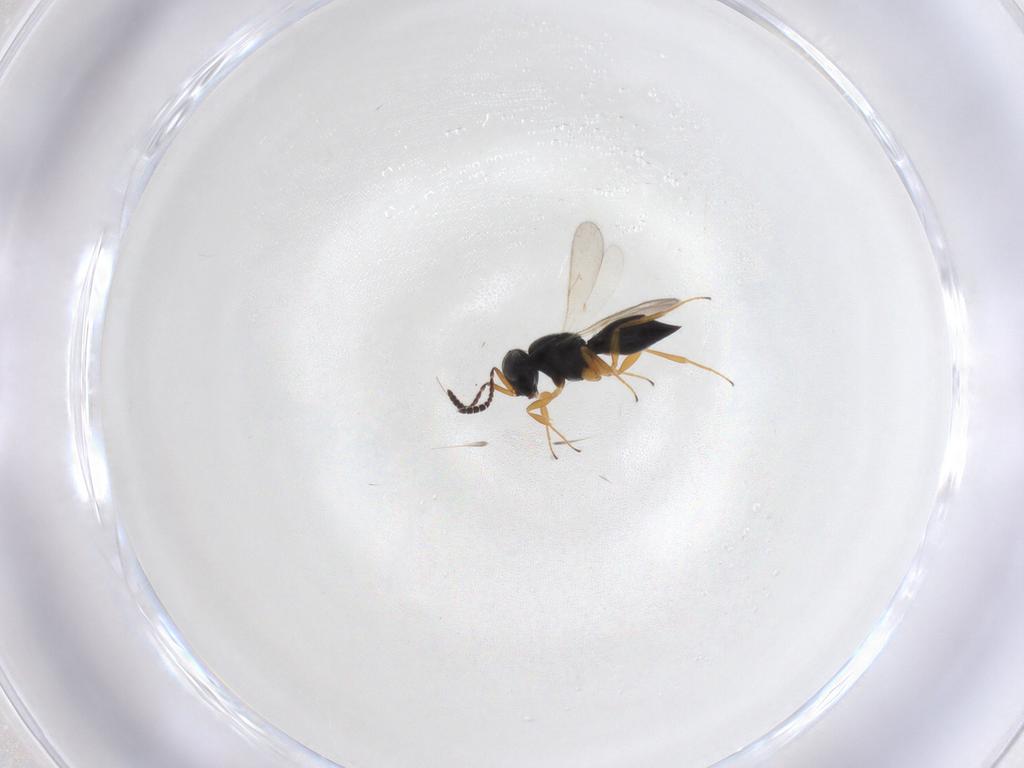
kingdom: Animalia
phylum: Arthropoda
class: Insecta
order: Hymenoptera
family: Scelionidae
